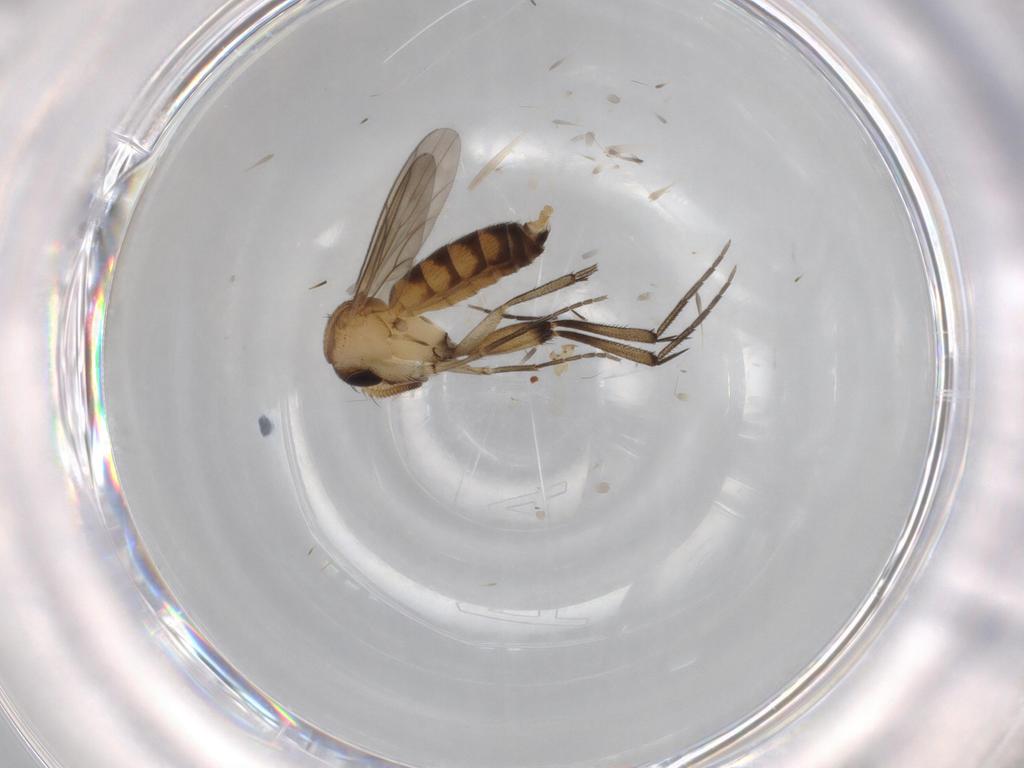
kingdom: Animalia
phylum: Arthropoda
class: Insecta
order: Diptera
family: Mycetophilidae
